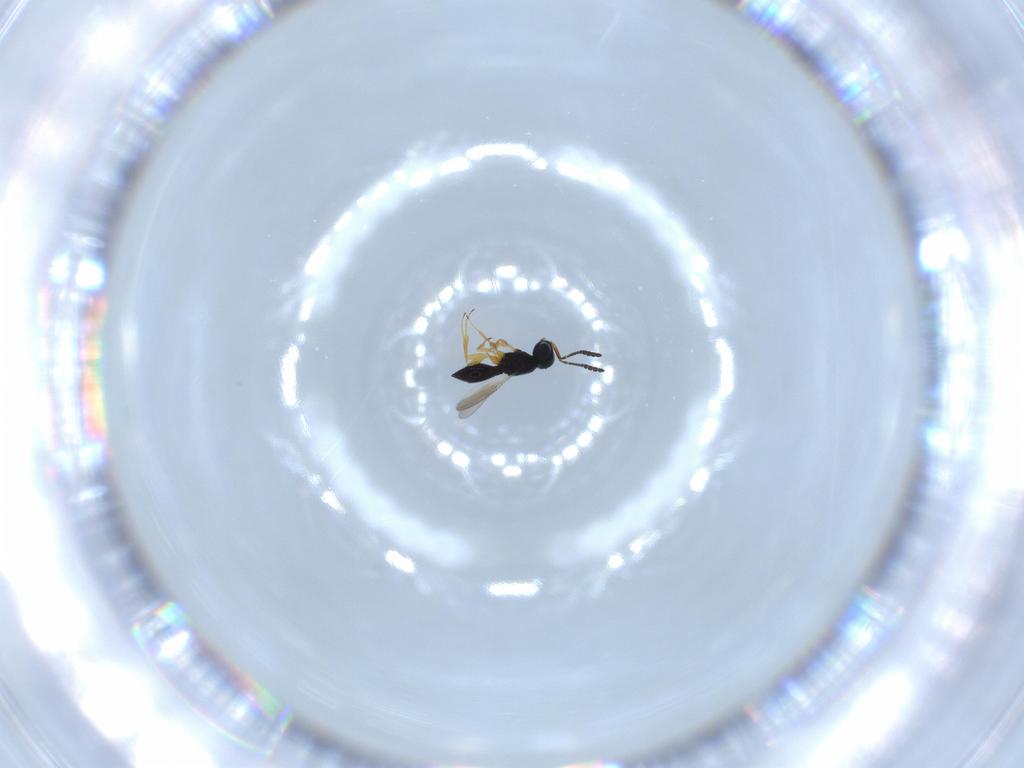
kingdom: Animalia
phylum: Arthropoda
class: Insecta
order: Hymenoptera
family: Scelionidae
